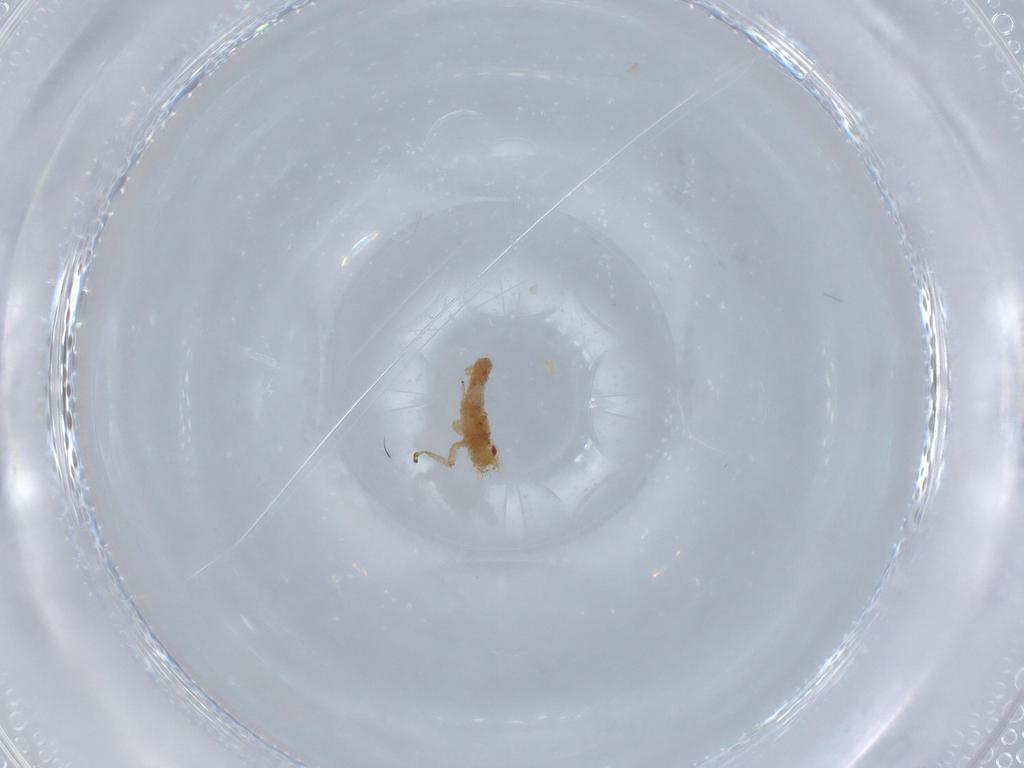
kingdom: Animalia
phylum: Arthropoda
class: Insecta
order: Hemiptera
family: Aphididae
